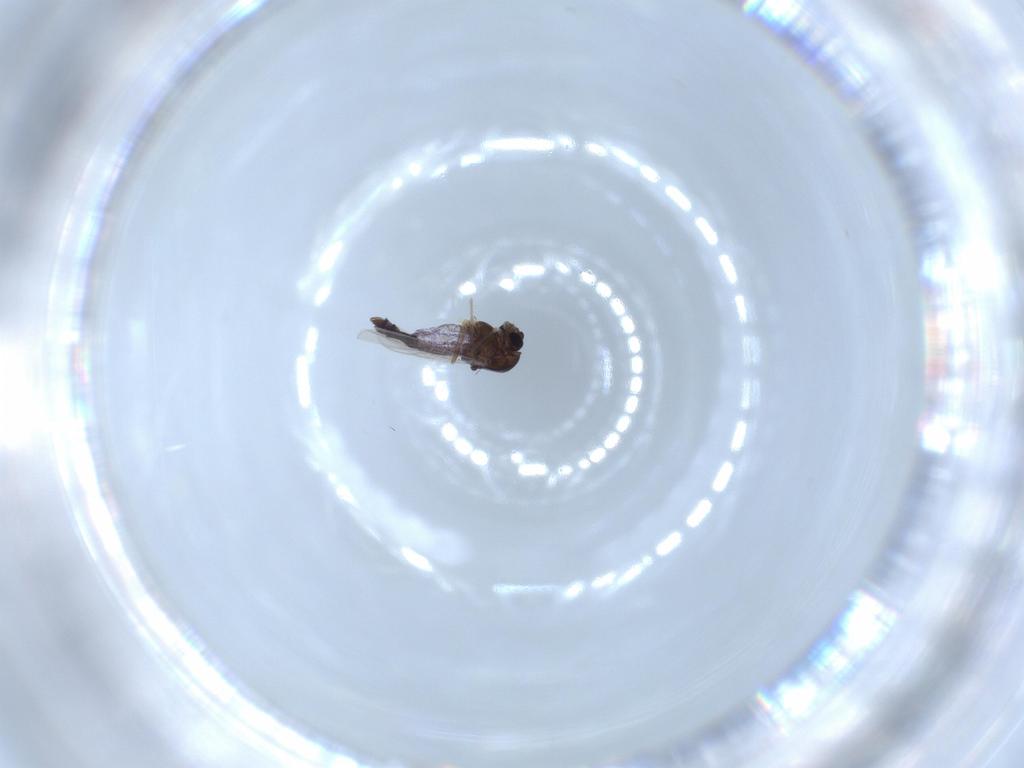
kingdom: Animalia
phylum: Arthropoda
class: Insecta
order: Diptera
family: Chironomidae
